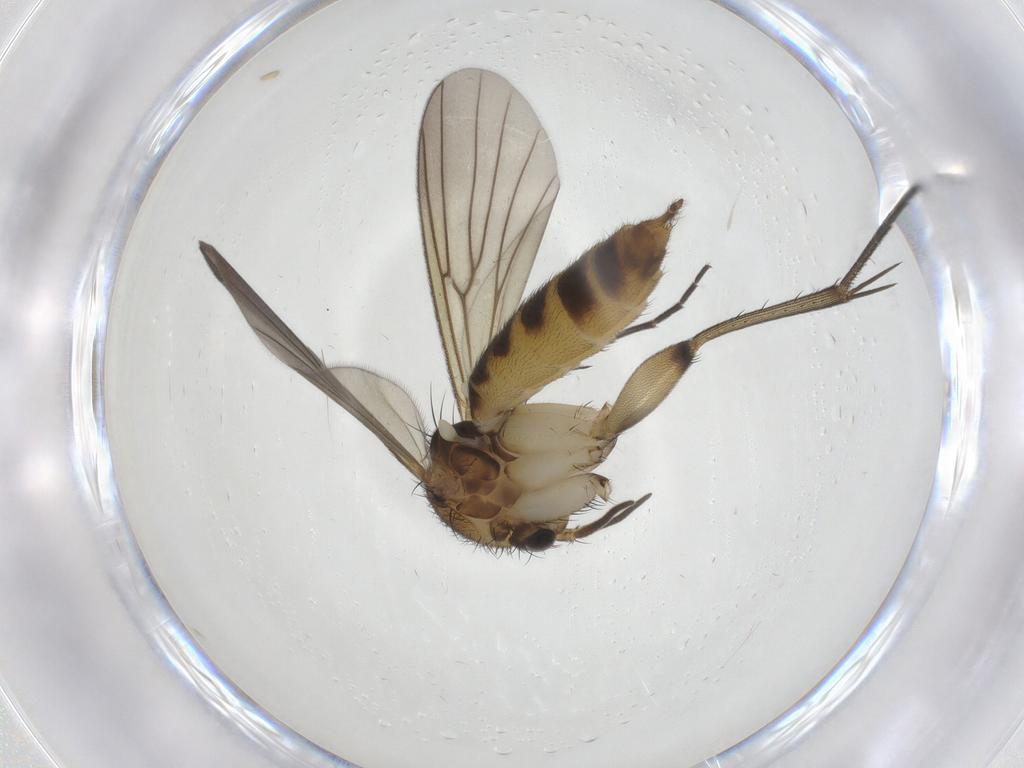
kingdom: Animalia
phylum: Arthropoda
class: Insecta
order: Diptera
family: Mycetophilidae
